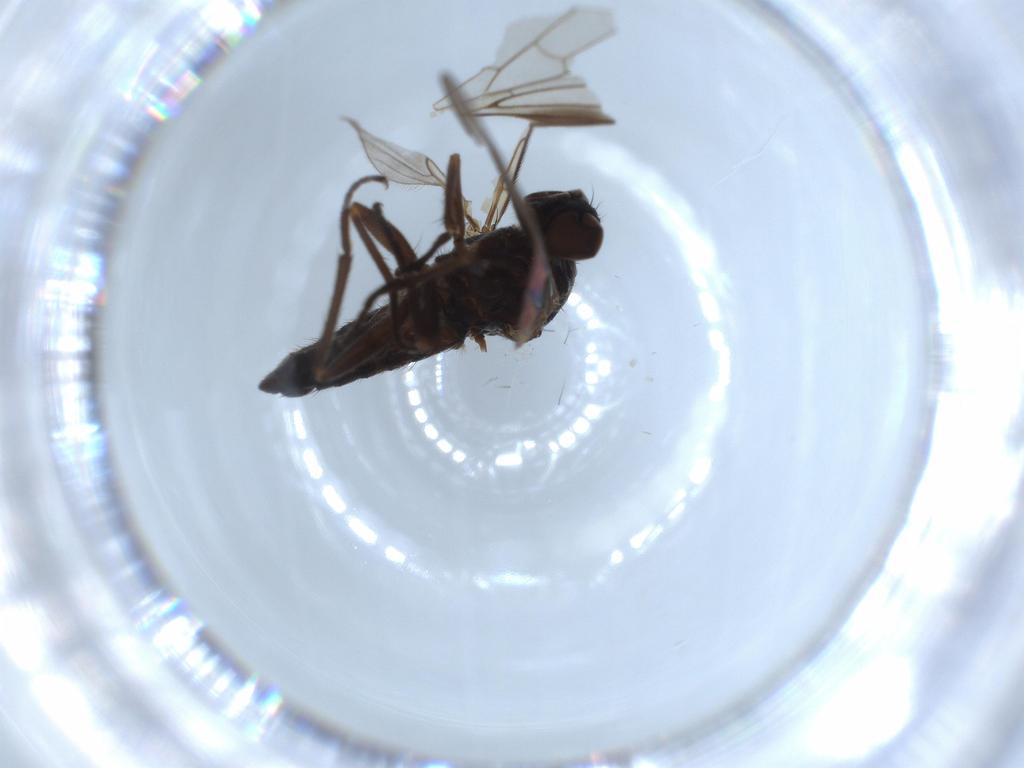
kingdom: Animalia
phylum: Arthropoda
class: Insecta
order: Diptera
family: Empididae
